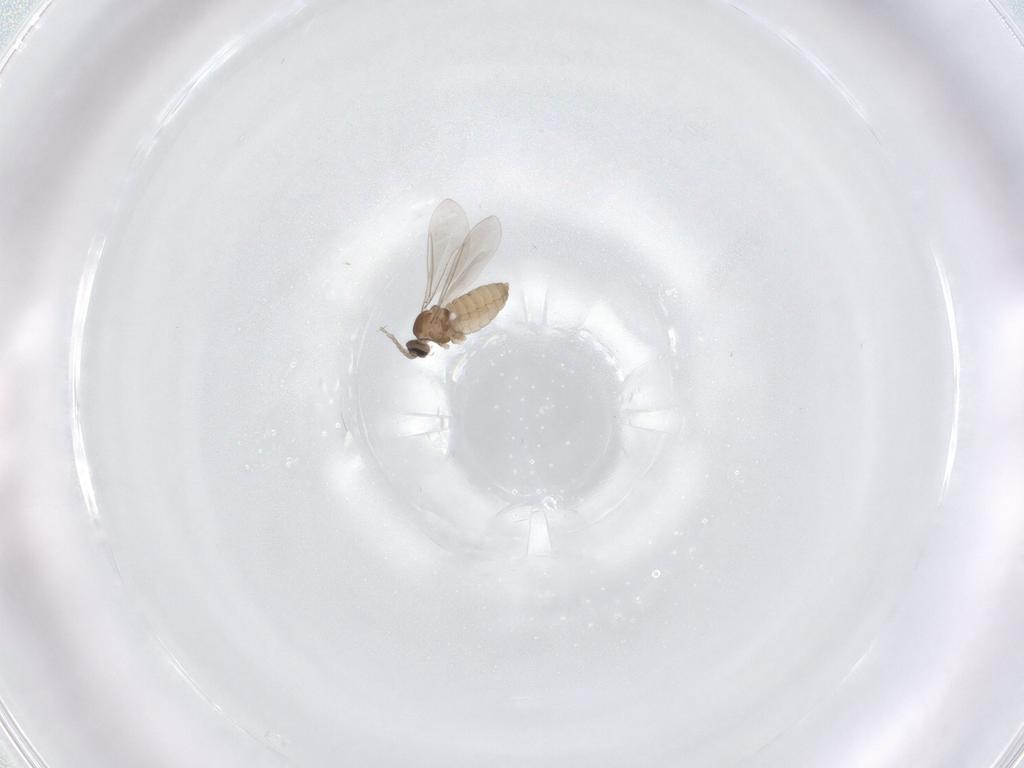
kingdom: Animalia
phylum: Arthropoda
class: Insecta
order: Diptera
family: Cecidomyiidae
